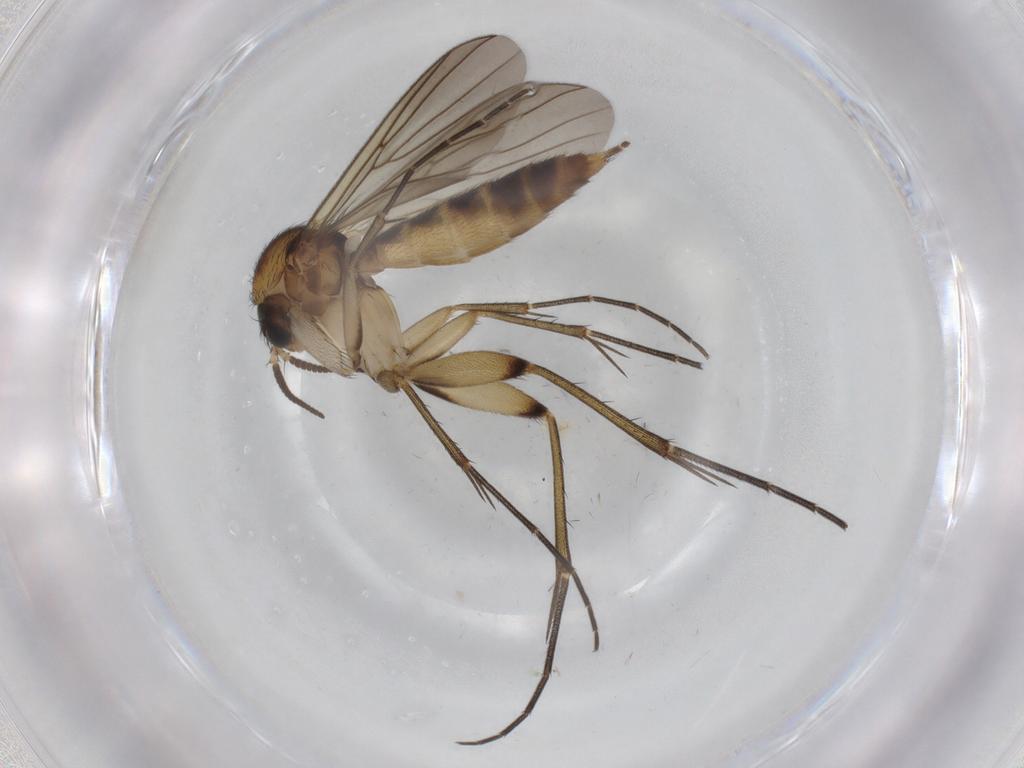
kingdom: Animalia
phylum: Arthropoda
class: Insecta
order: Diptera
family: Mycetophilidae
